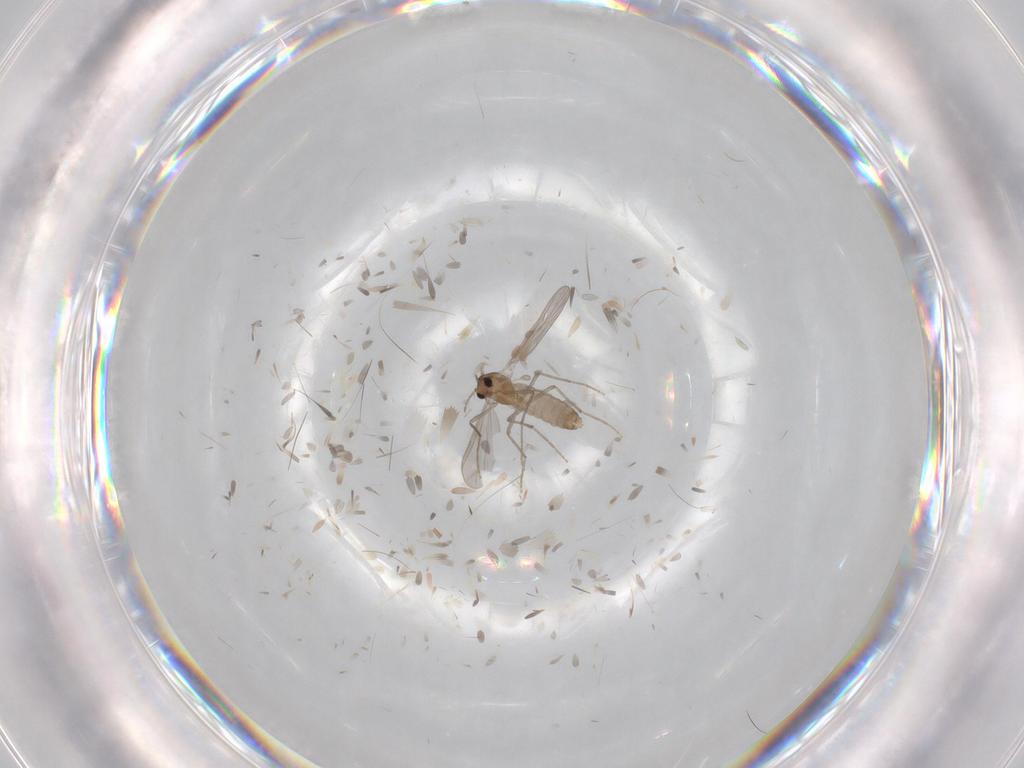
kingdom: Animalia
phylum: Arthropoda
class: Insecta
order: Diptera
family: Chironomidae
